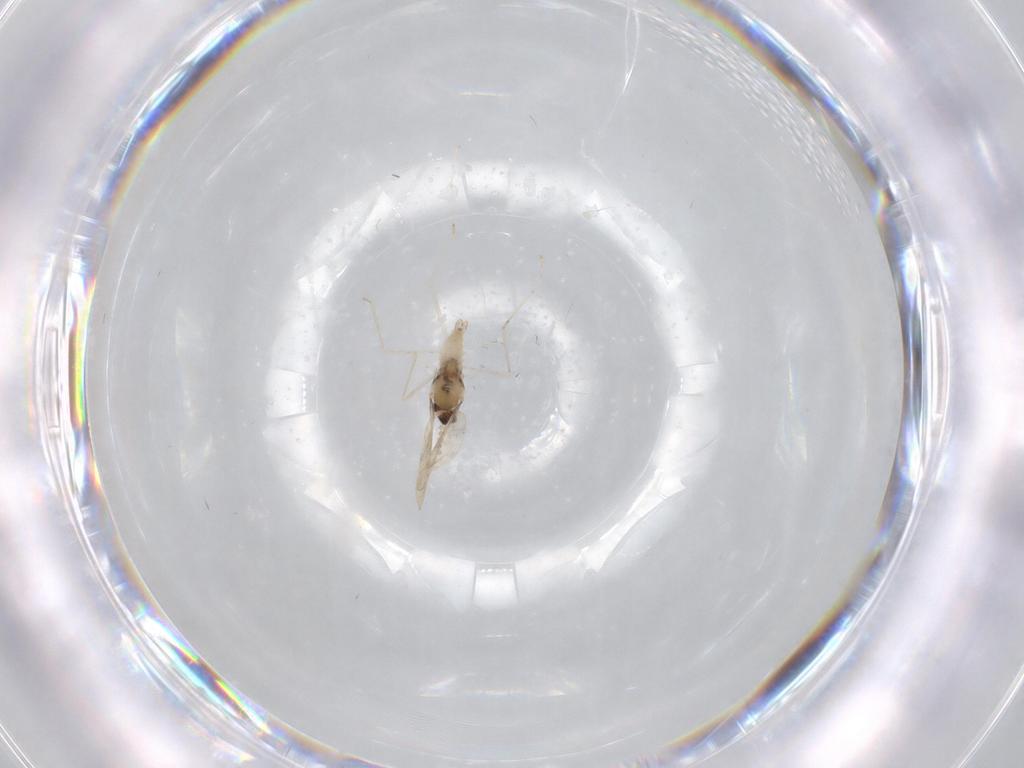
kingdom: Animalia
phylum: Arthropoda
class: Insecta
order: Diptera
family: Cecidomyiidae
